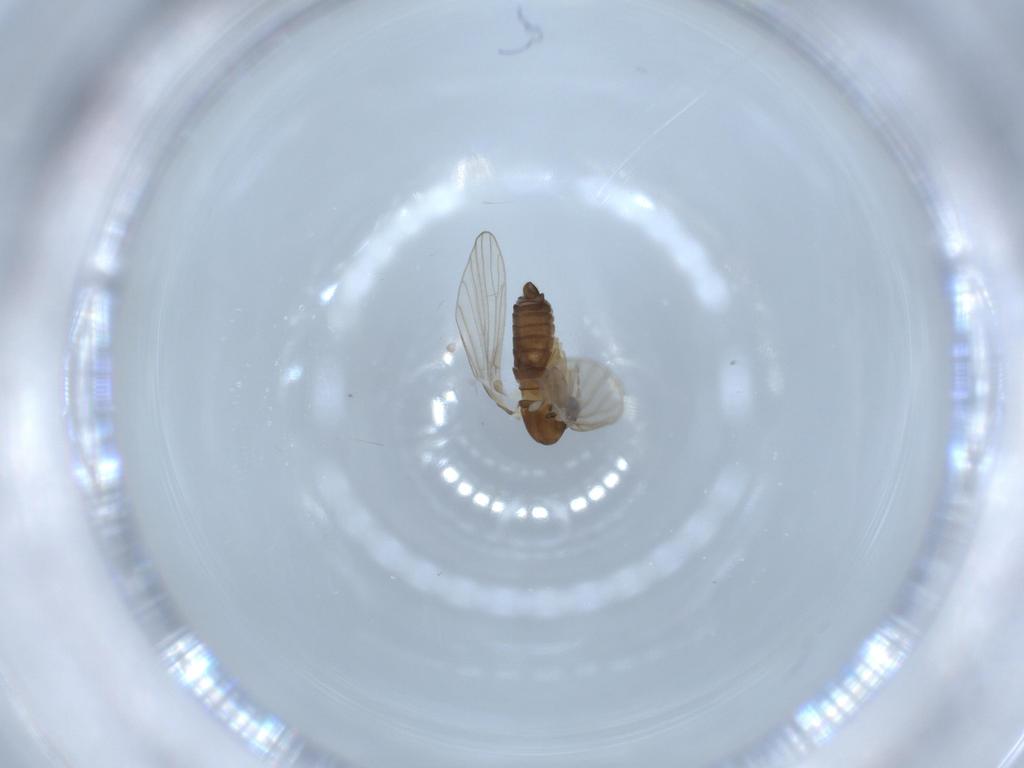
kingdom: Animalia
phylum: Arthropoda
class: Insecta
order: Diptera
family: Psychodidae
